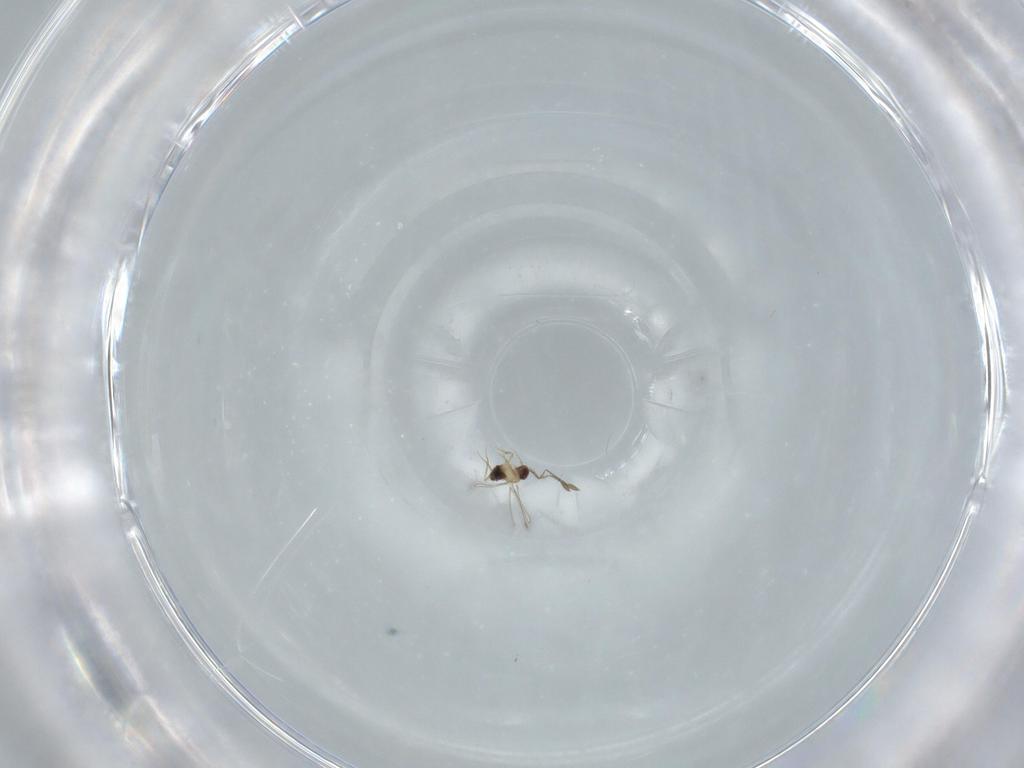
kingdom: Animalia
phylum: Arthropoda
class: Insecta
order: Hymenoptera
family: Mymaridae
